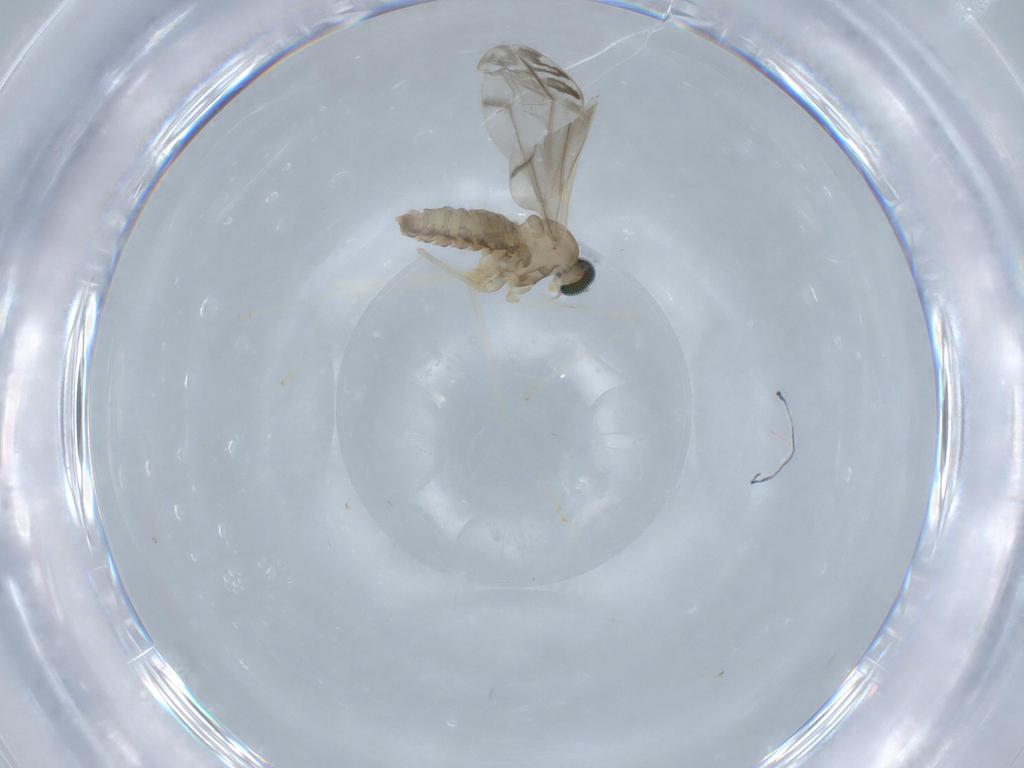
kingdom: Animalia
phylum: Arthropoda
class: Insecta
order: Diptera
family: Cecidomyiidae
